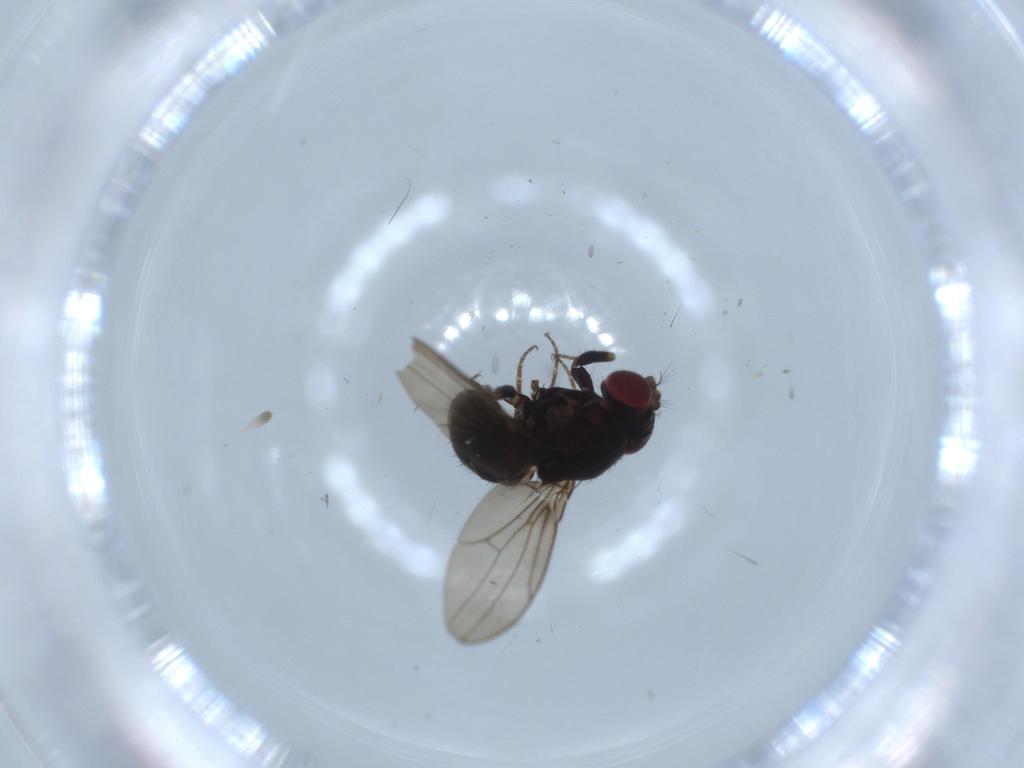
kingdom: Animalia
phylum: Arthropoda
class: Insecta
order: Diptera
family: Ephydridae
